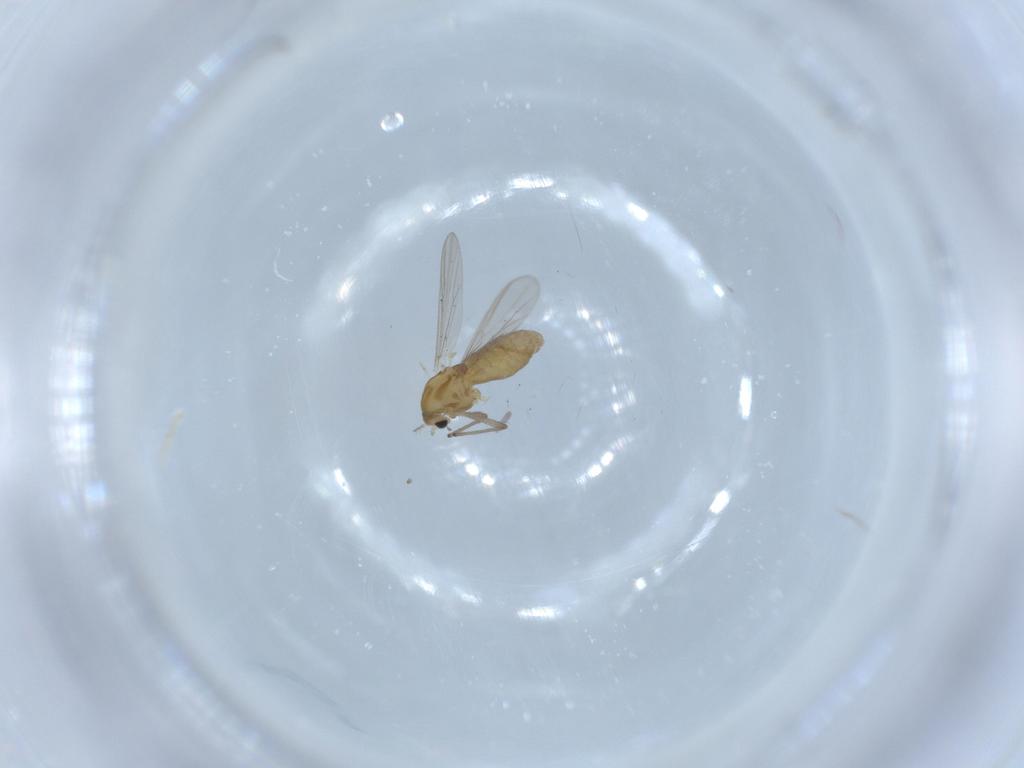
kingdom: Animalia
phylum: Arthropoda
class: Insecta
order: Diptera
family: Chironomidae
